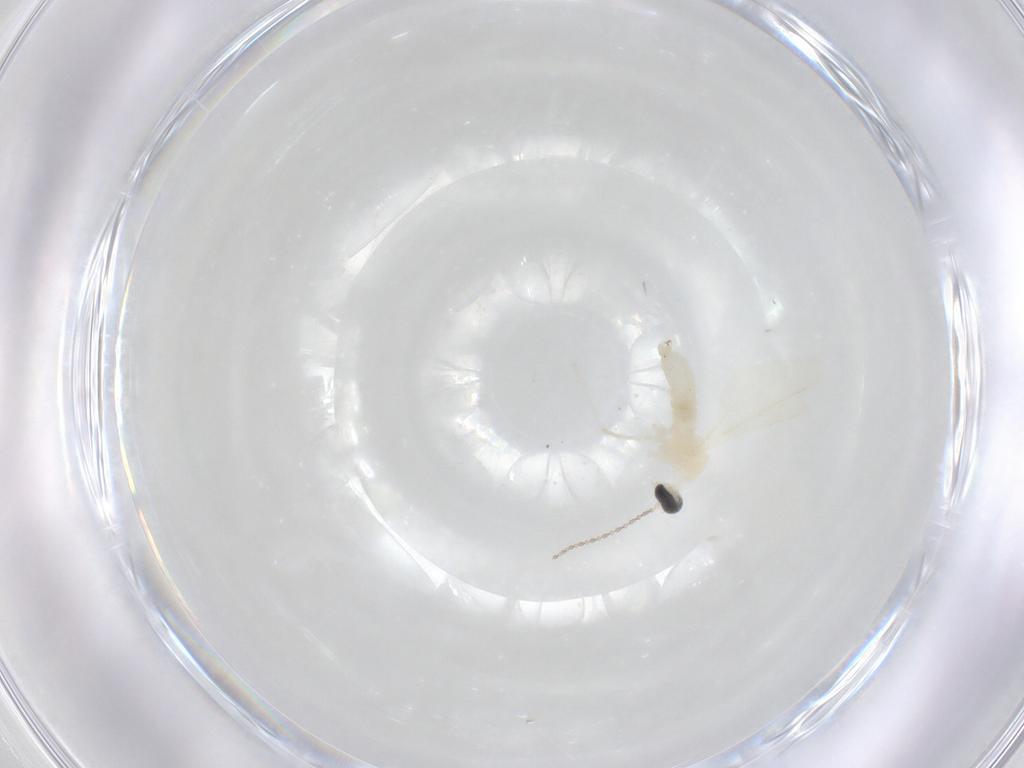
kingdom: Animalia
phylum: Arthropoda
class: Insecta
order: Diptera
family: Cecidomyiidae
